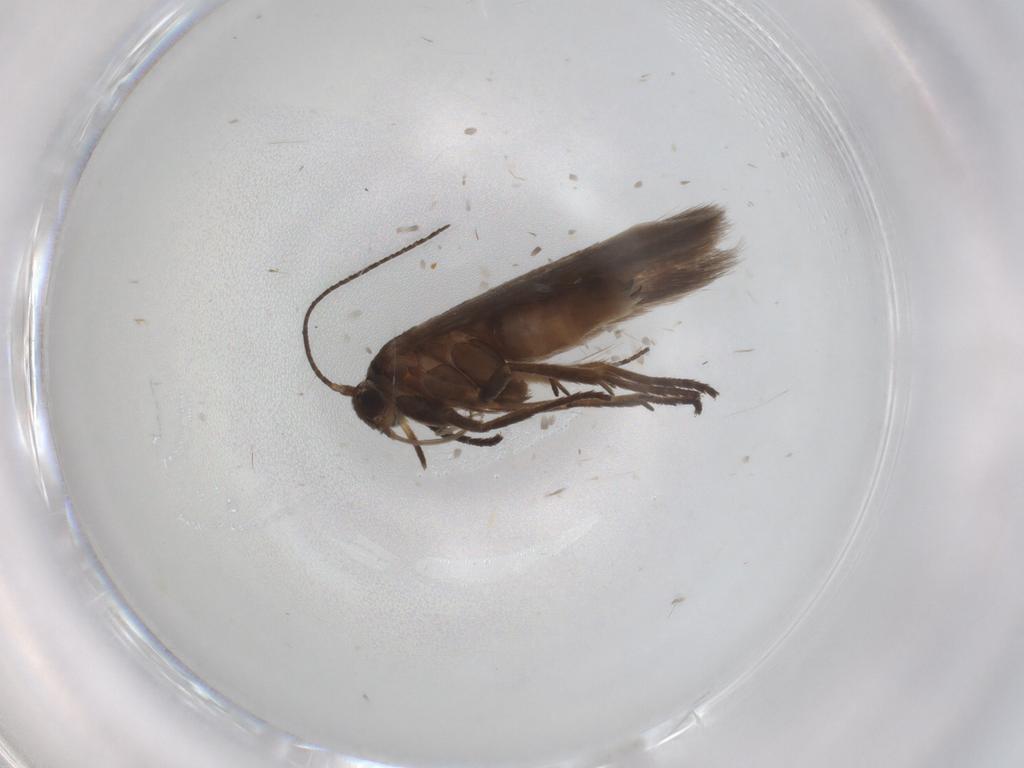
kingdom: Animalia
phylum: Arthropoda
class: Insecta
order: Lepidoptera
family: Scythrididae
